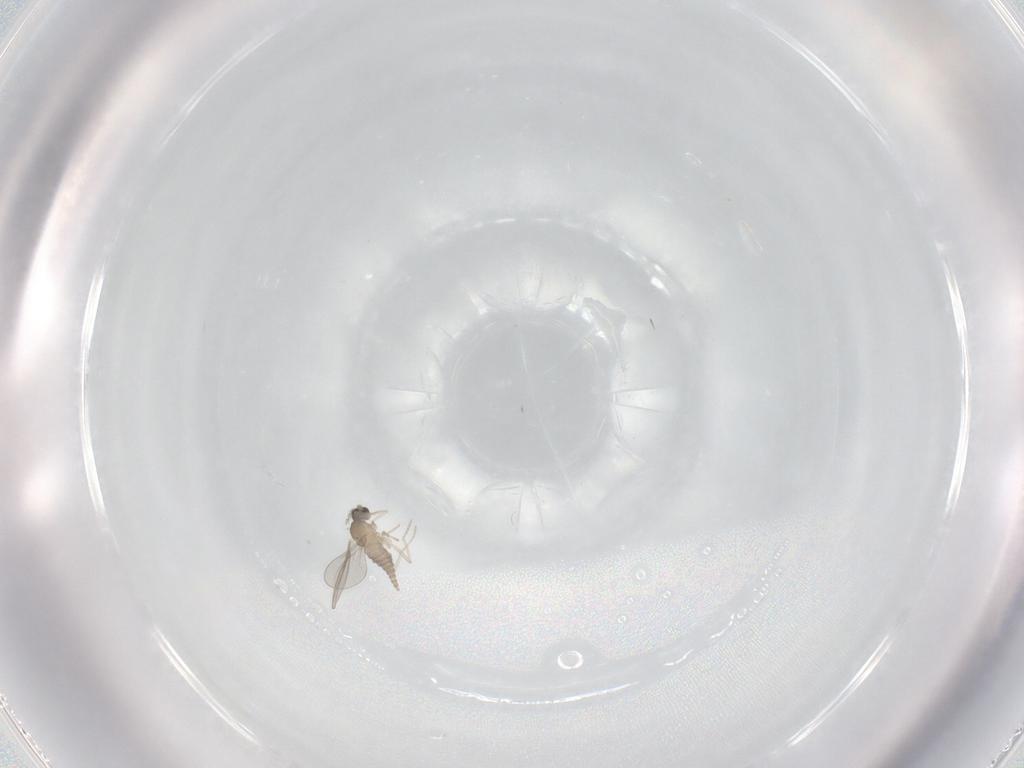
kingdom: Animalia
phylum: Arthropoda
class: Insecta
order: Diptera
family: Cecidomyiidae
